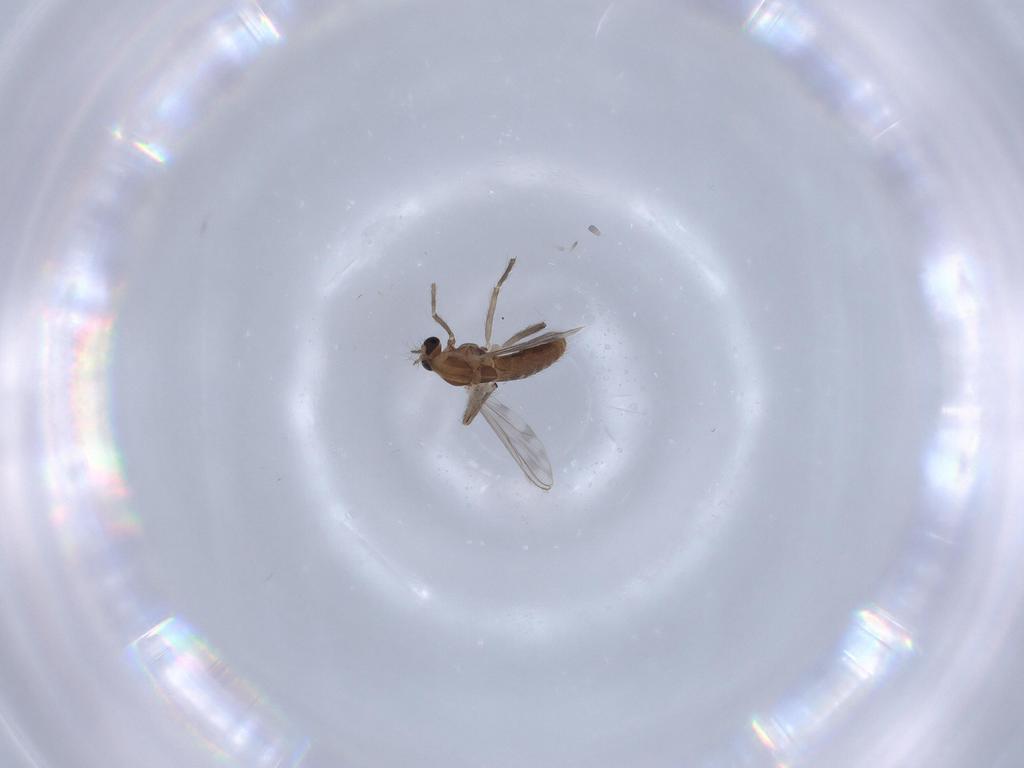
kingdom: Animalia
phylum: Arthropoda
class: Insecta
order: Diptera
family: Chironomidae
